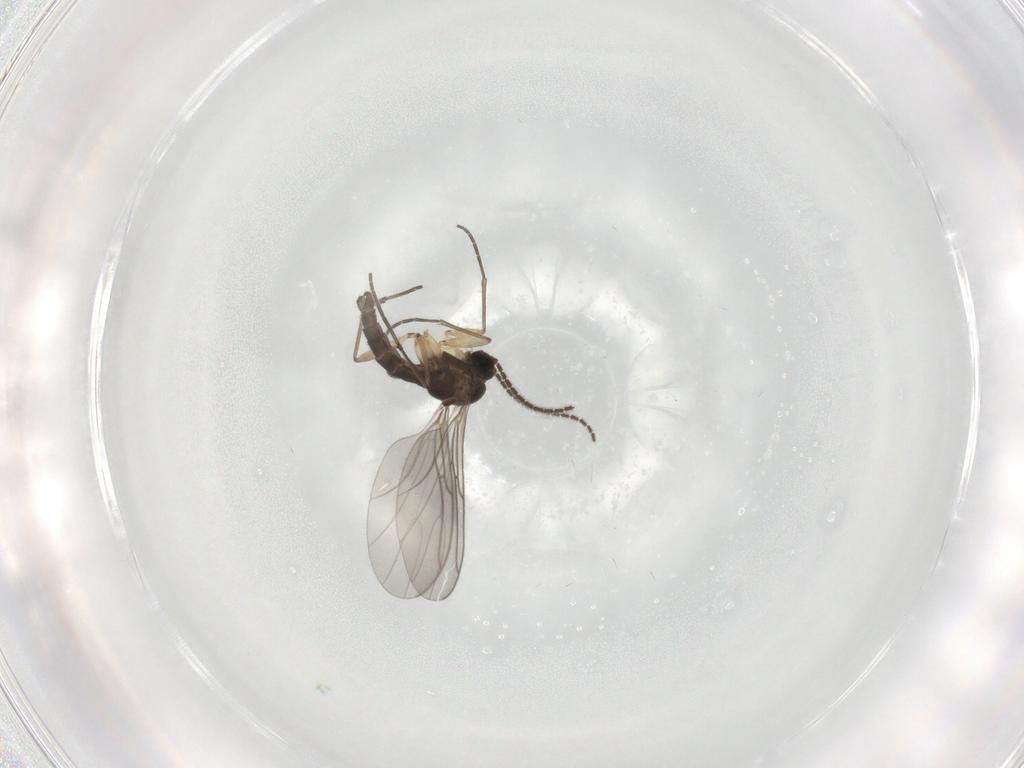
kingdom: Animalia
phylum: Arthropoda
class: Insecta
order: Diptera
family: Sciaridae
